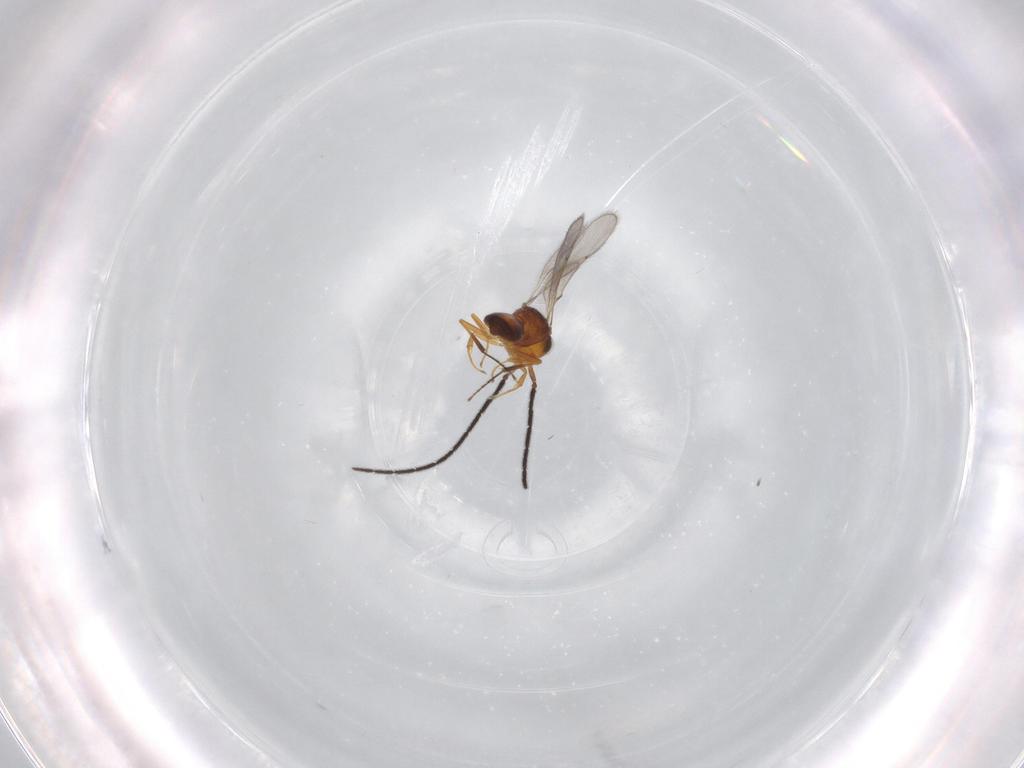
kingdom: Animalia
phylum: Arthropoda
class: Insecta
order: Hymenoptera
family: Scelionidae
